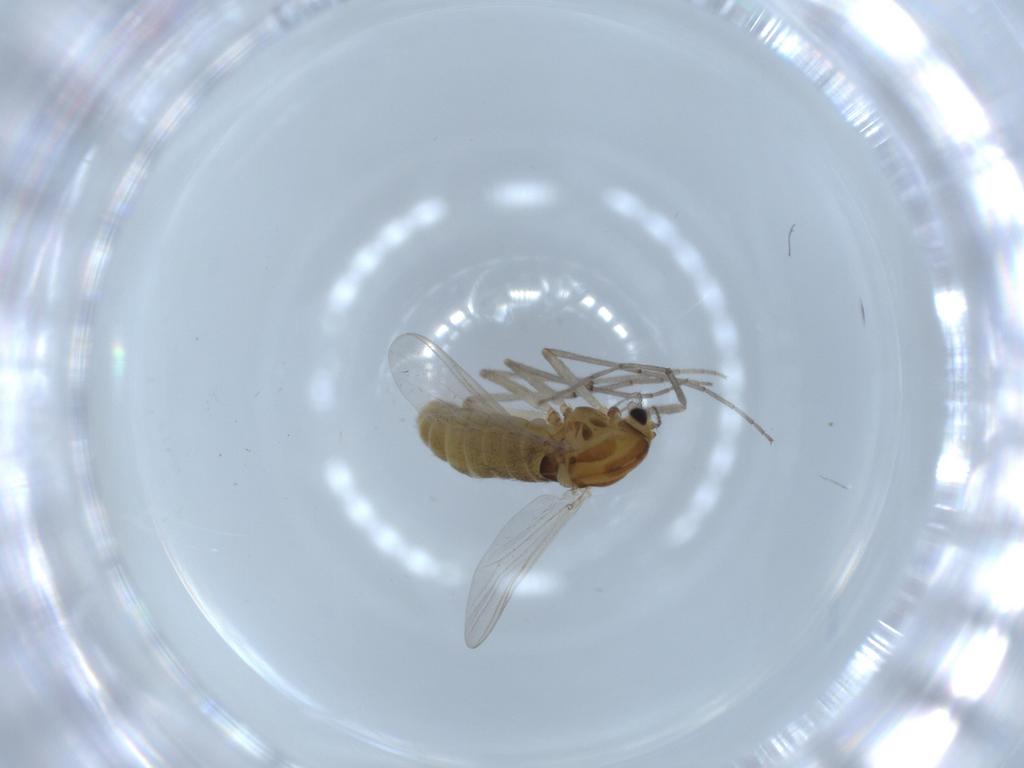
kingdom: Animalia
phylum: Arthropoda
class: Insecta
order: Diptera
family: Chironomidae
